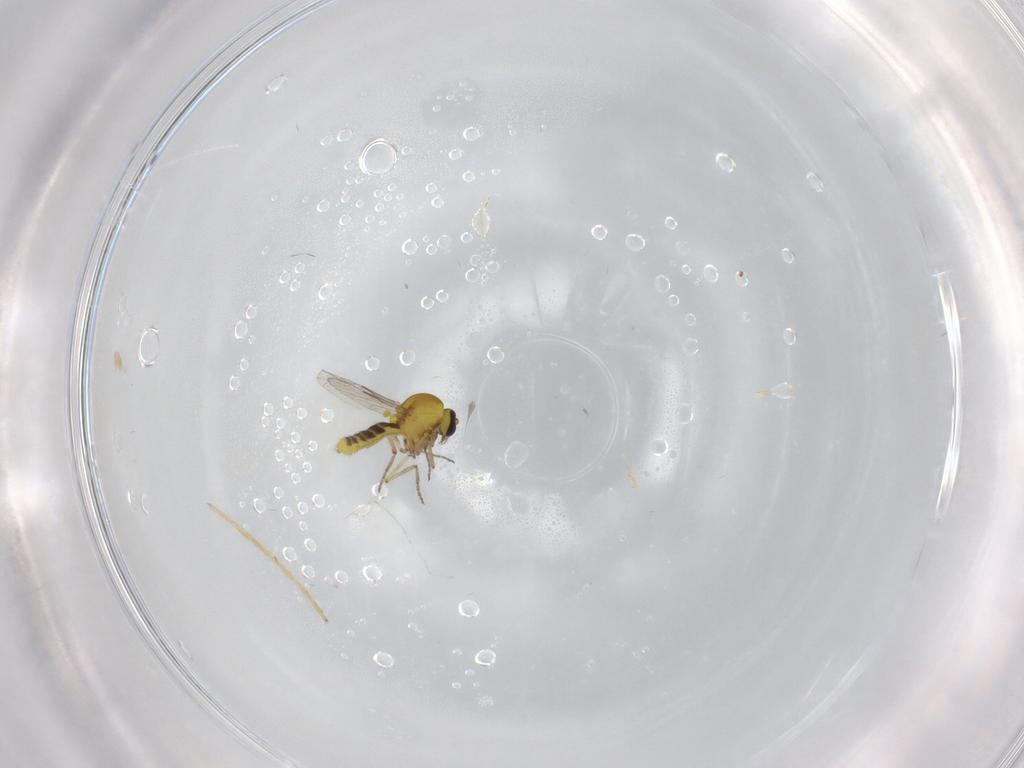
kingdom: Animalia
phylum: Arthropoda
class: Insecta
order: Diptera
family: Ceratopogonidae
